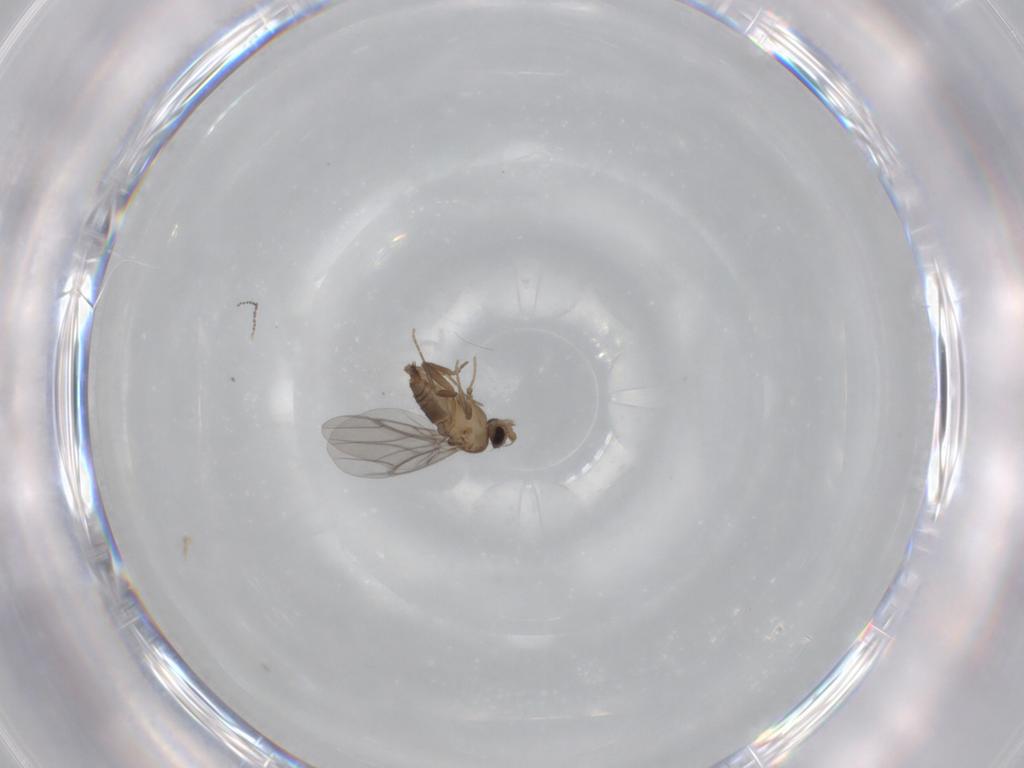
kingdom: Animalia
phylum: Arthropoda
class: Insecta
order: Diptera
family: Cecidomyiidae
